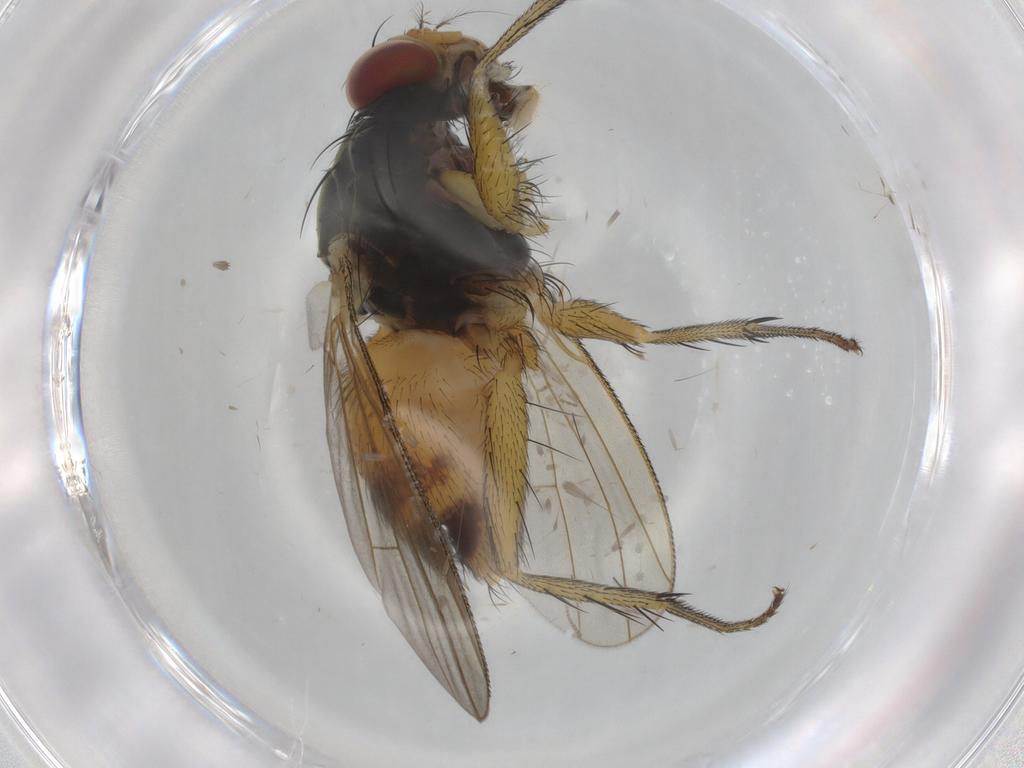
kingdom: Animalia
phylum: Arthropoda
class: Insecta
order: Diptera
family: Muscidae
